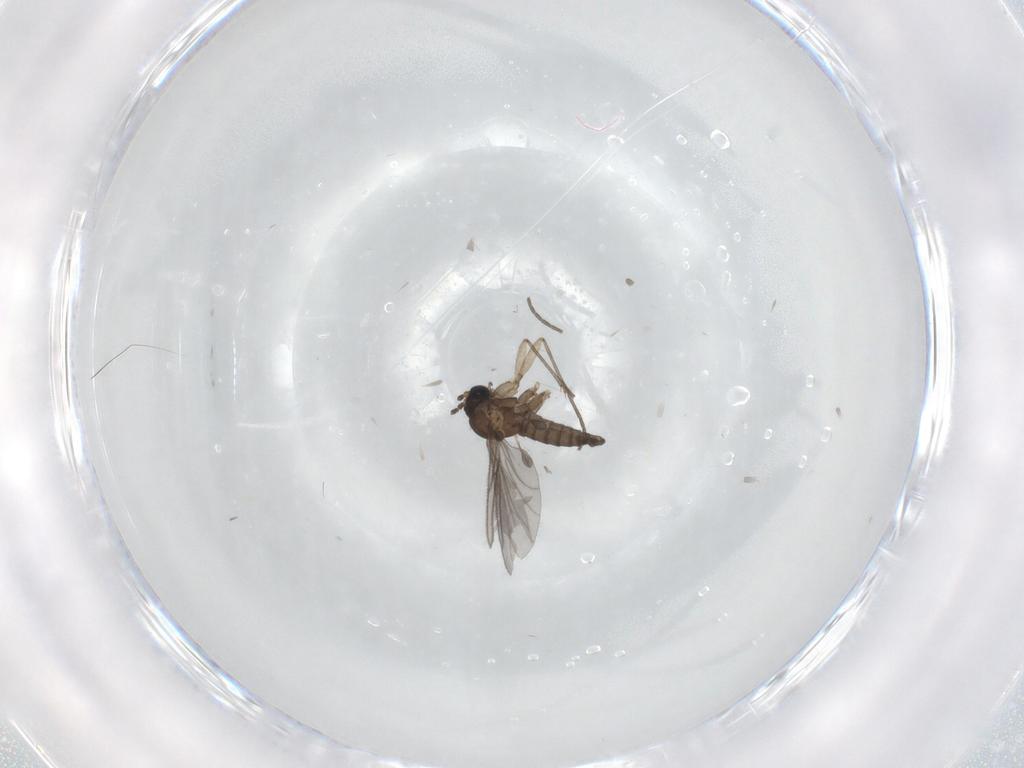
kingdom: Animalia
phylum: Arthropoda
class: Insecta
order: Diptera
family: Sciaridae
